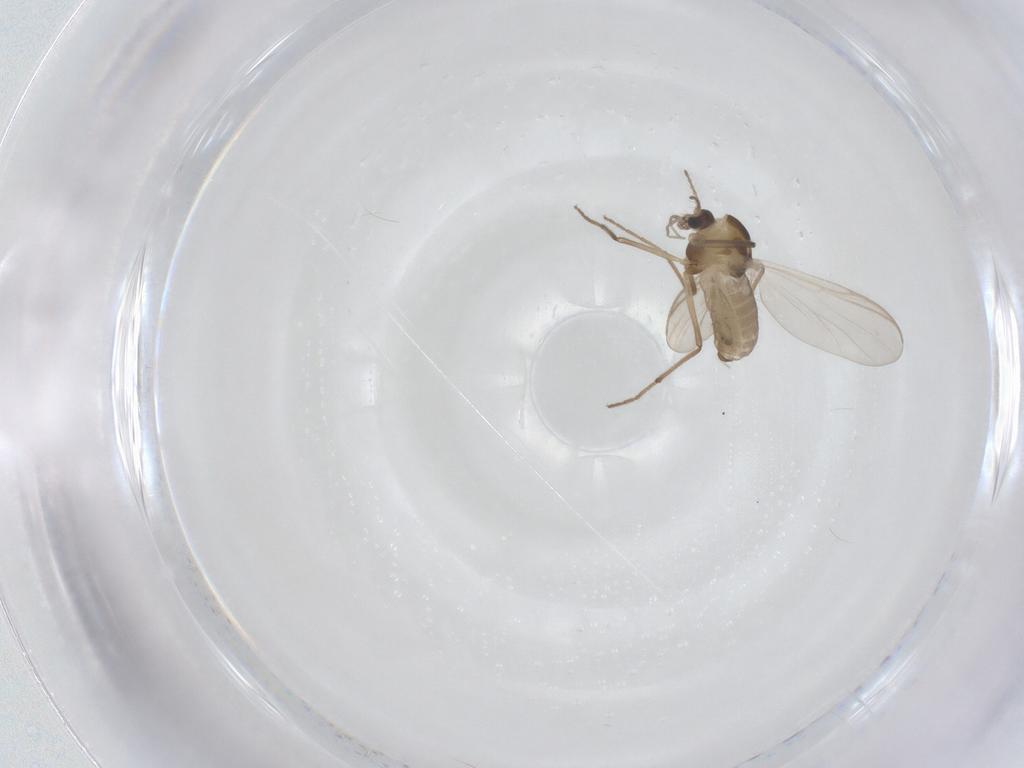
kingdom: Animalia
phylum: Arthropoda
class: Insecta
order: Diptera
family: Chironomidae
